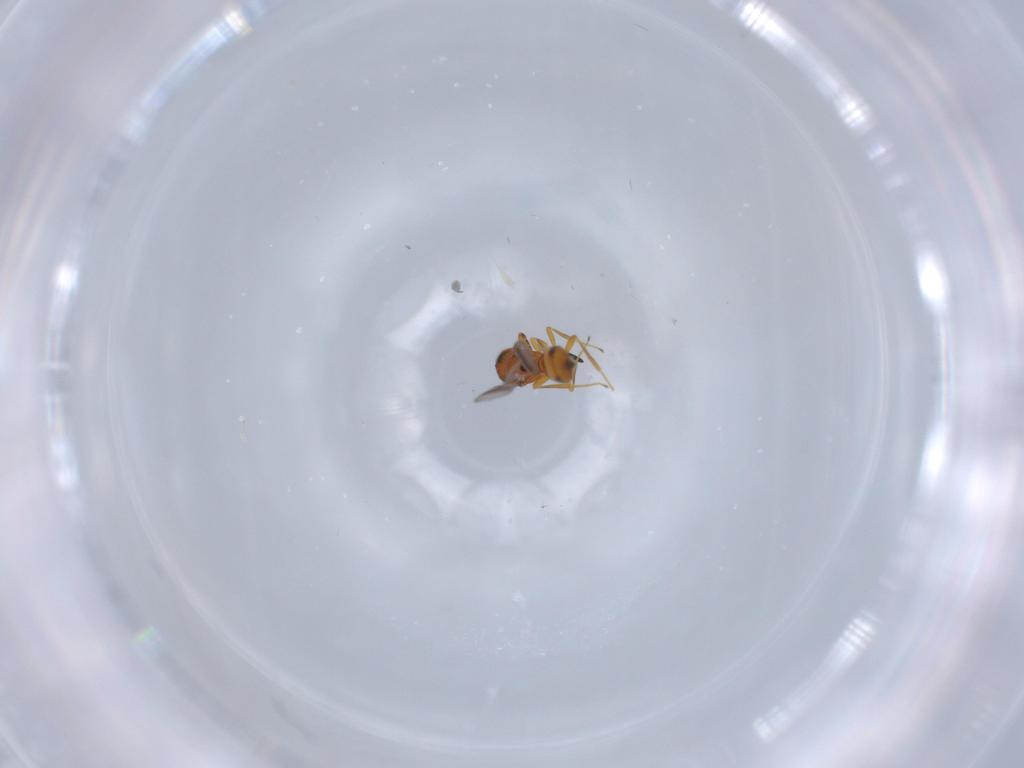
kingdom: Animalia
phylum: Arthropoda
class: Insecta
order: Hymenoptera
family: Scelionidae
